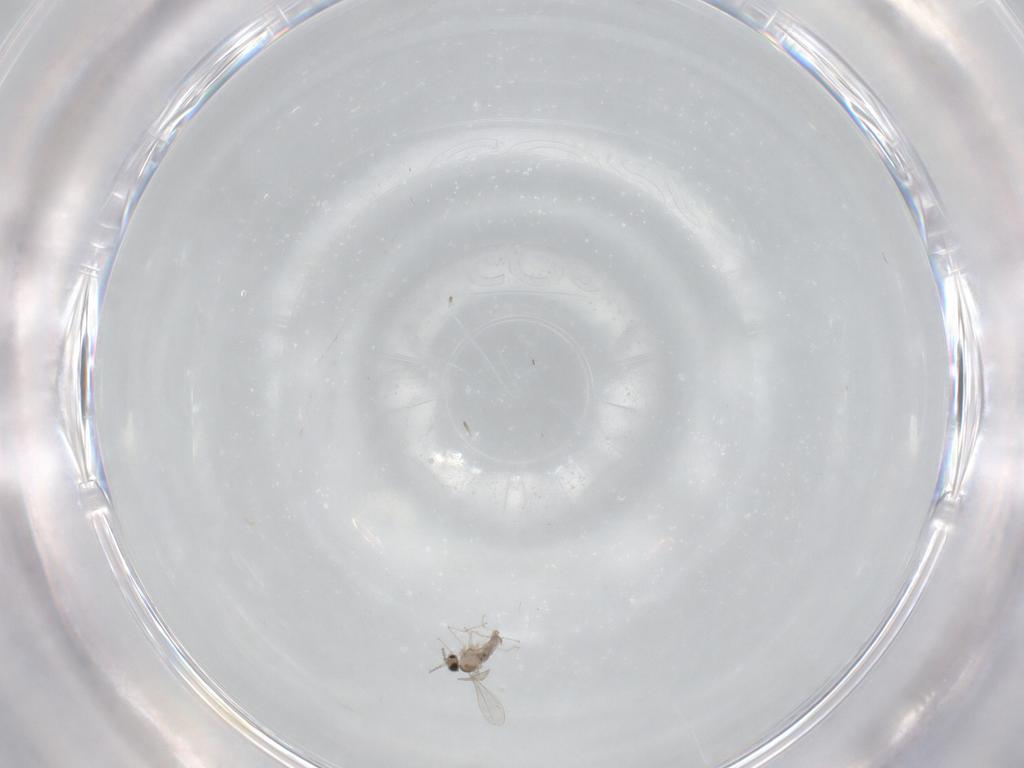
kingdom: Animalia
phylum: Arthropoda
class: Insecta
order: Diptera
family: Cecidomyiidae
